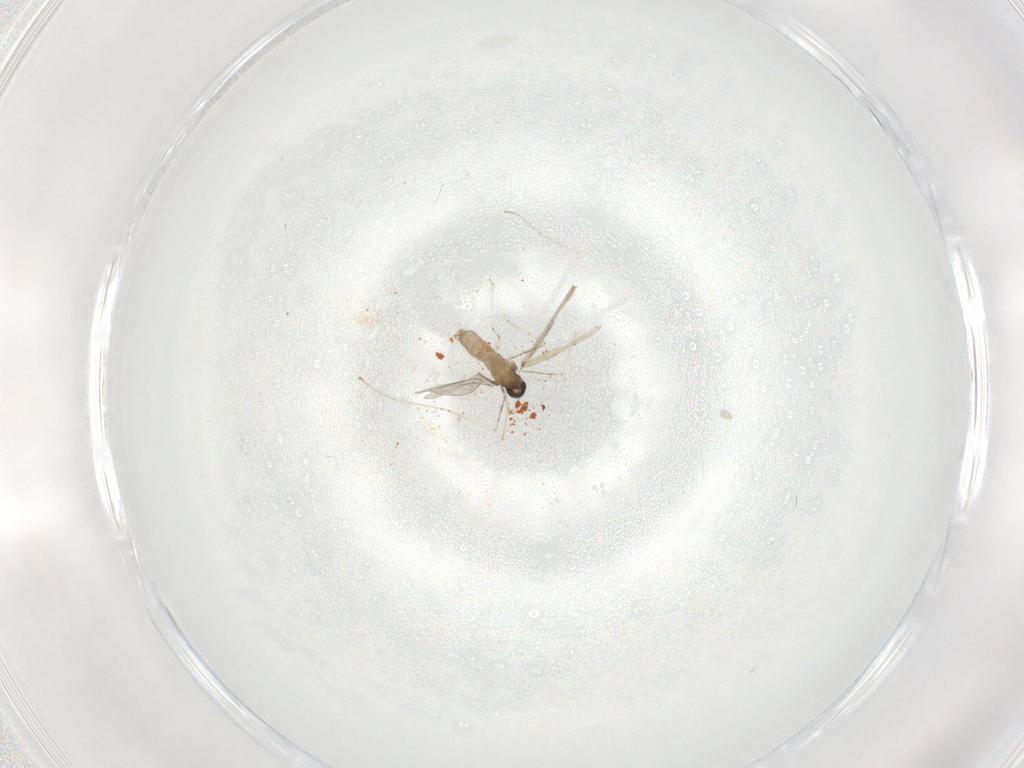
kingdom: Animalia
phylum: Arthropoda
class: Insecta
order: Diptera
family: Chironomidae
